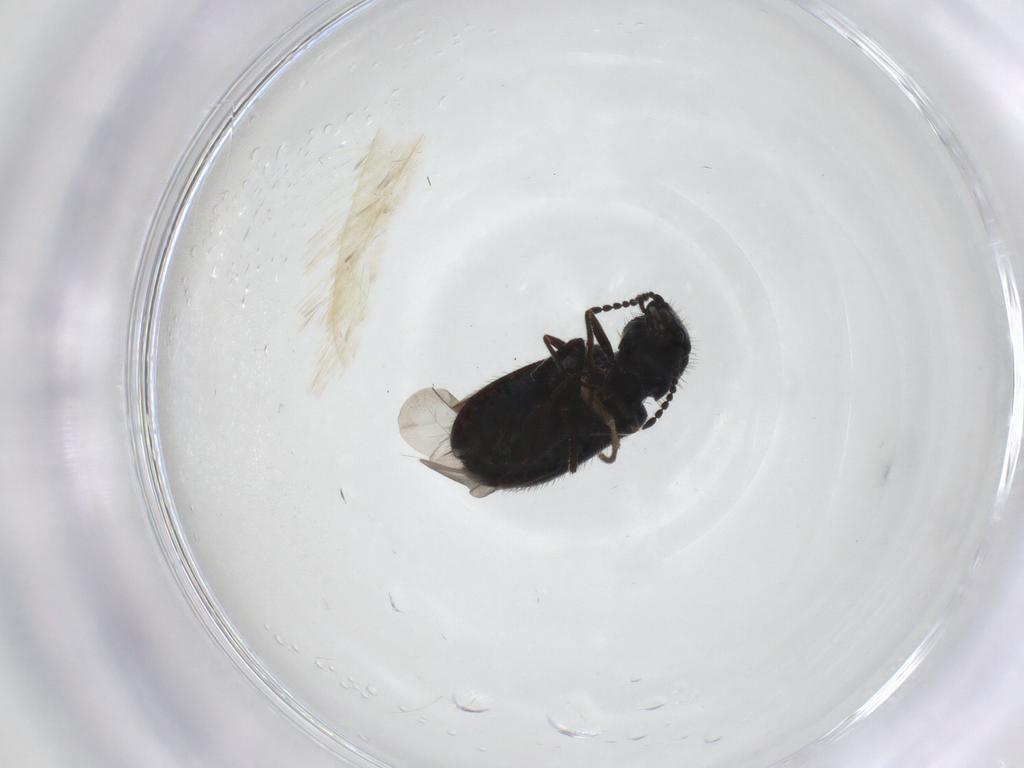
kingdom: Animalia
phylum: Arthropoda
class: Insecta
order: Coleoptera
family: Melyridae
